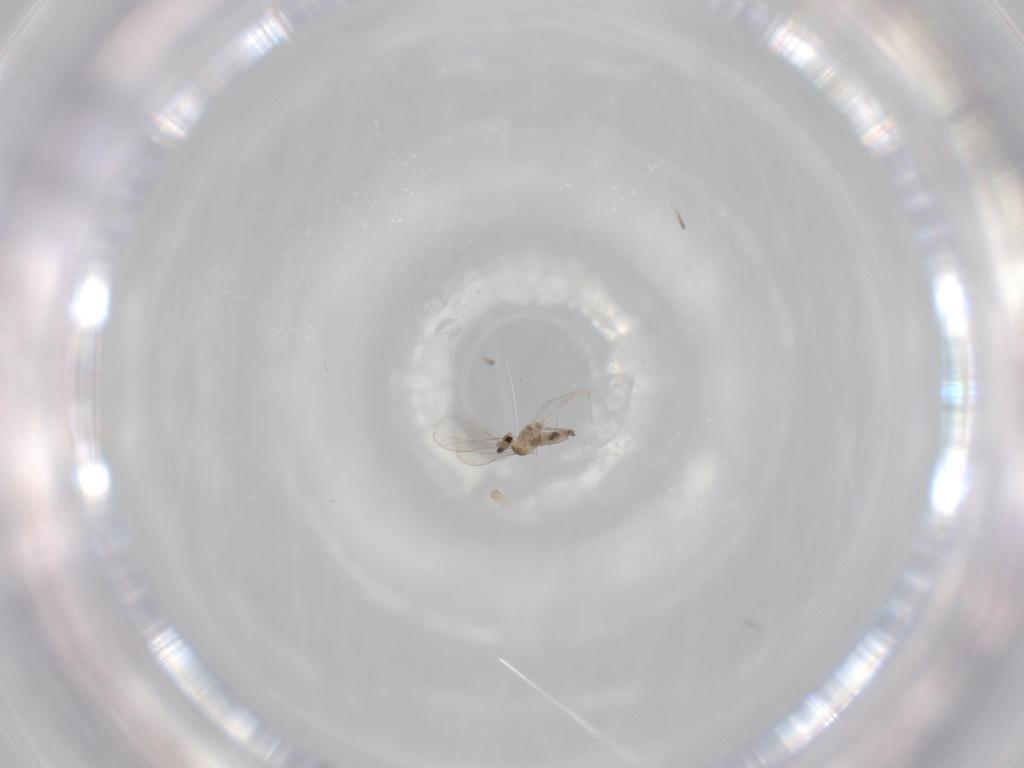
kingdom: Animalia
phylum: Arthropoda
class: Insecta
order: Diptera
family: Cecidomyiidae
